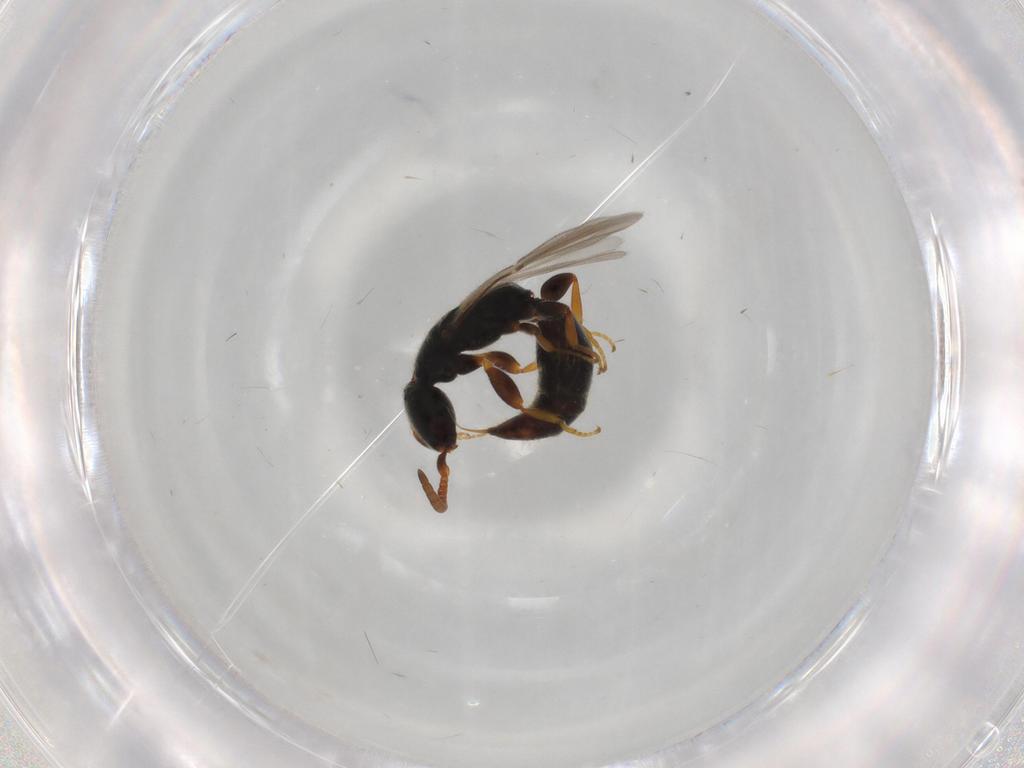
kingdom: Animalia
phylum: Arthropoda
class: Insecta
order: Hymenoptera
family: Bethylidae
